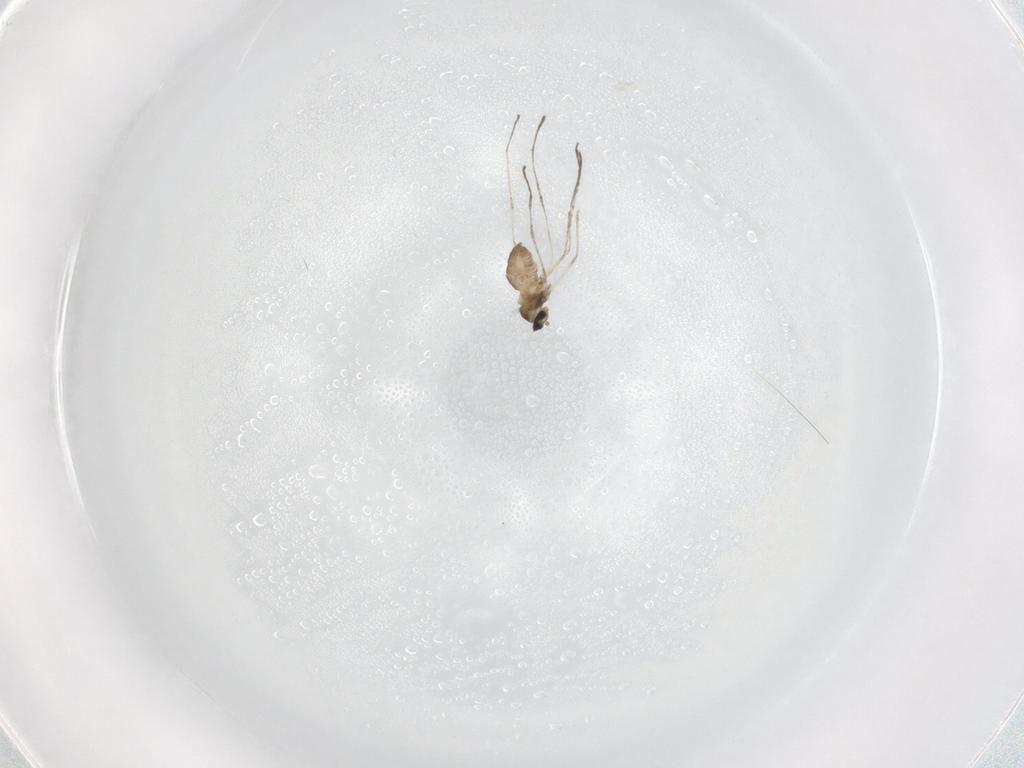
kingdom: Animalia
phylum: Arthropoda
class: Insecta
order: Diptera
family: Cecidomyiidae
